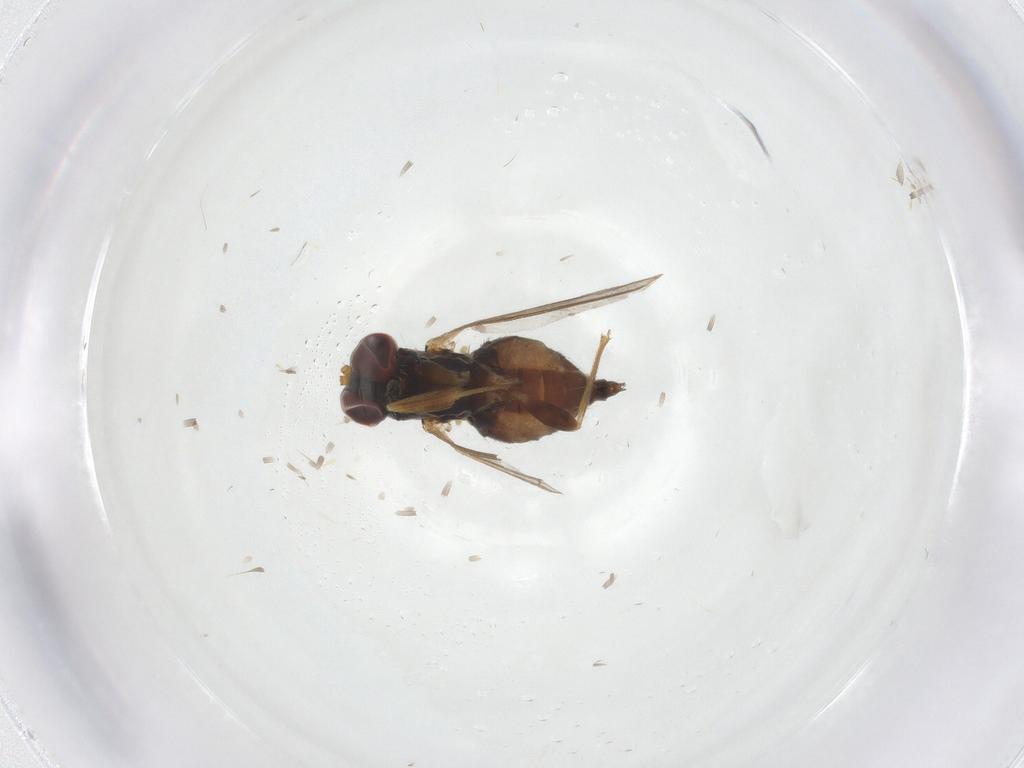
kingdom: Animalia
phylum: Arthropoda
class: Insecta
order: Diptera
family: Dolichopodidae
